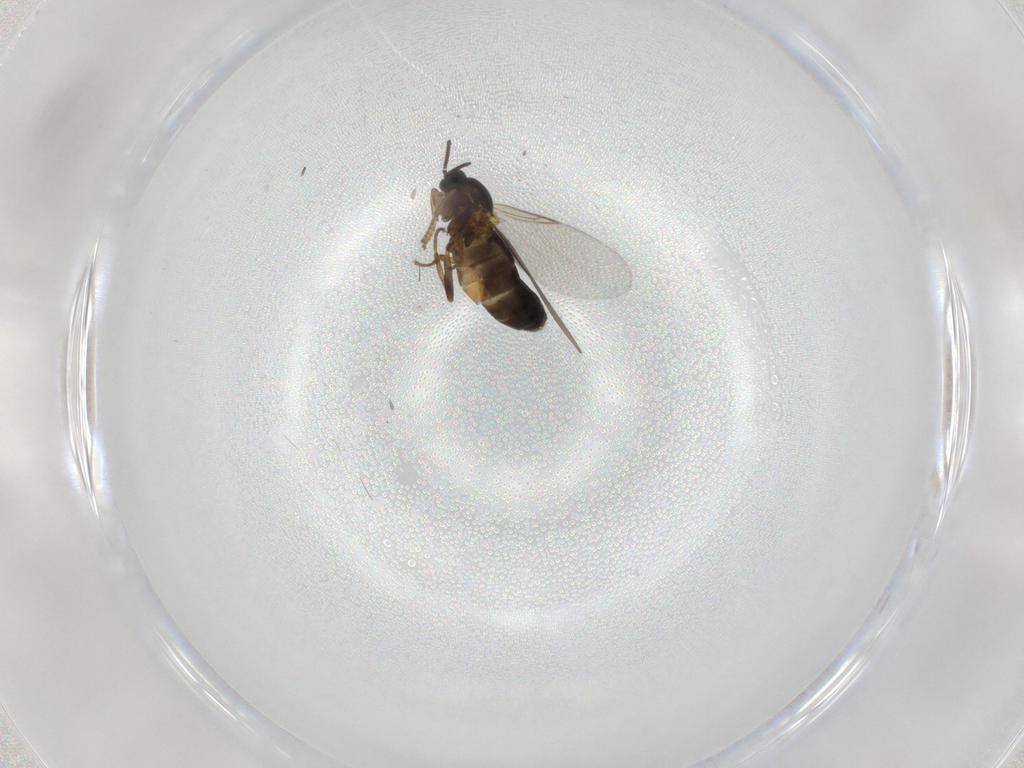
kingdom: Animalia
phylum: Arthropoda
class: Insecta
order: Diptera
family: Scatopsidae
